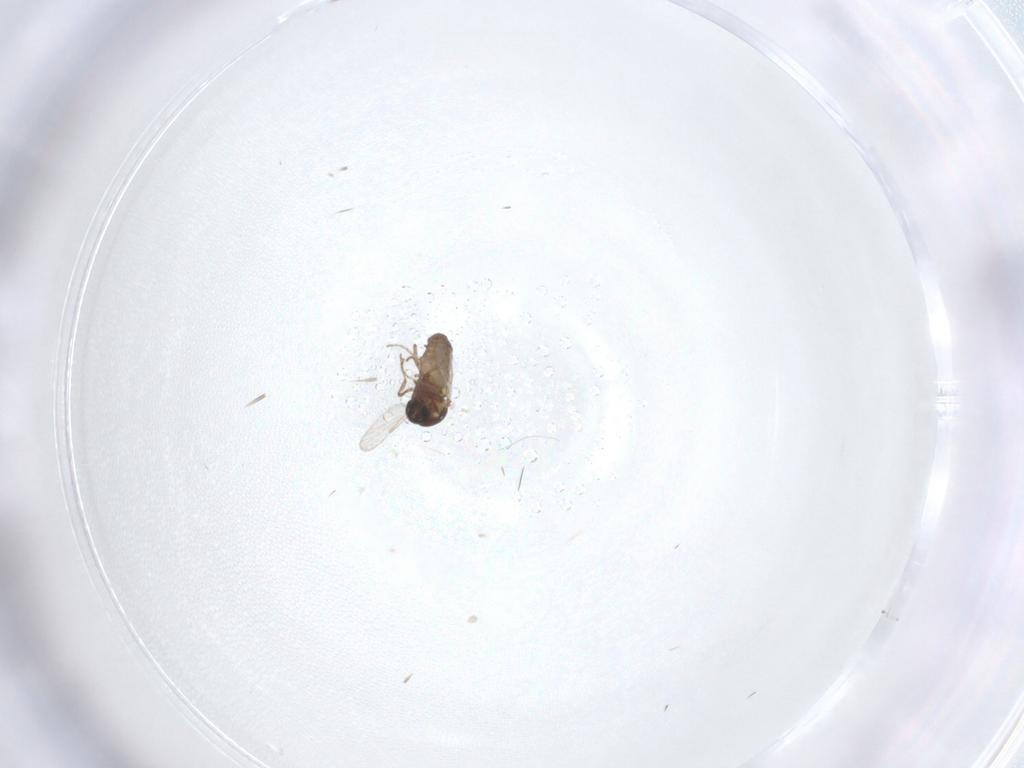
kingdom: Animalia
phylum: Arthropoda
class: Insecta
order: Diptera
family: Ceratopogonidae
